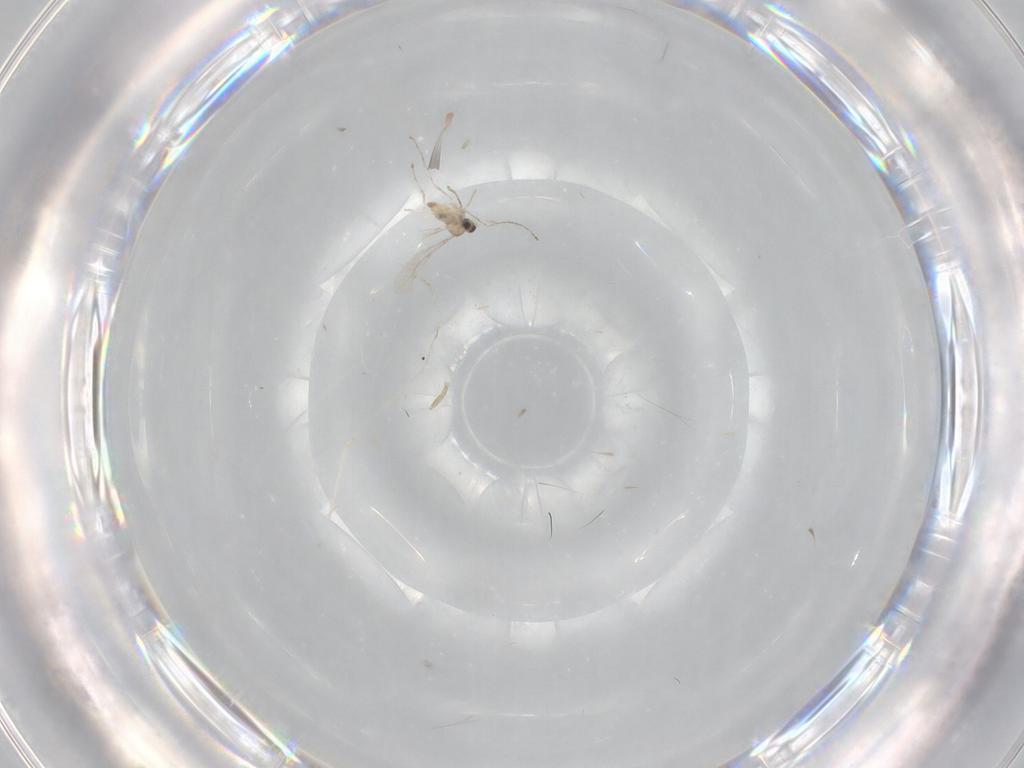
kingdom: Animalia
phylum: Arthropoda
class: Insecta
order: Diptera
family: Cecidomyiidae
